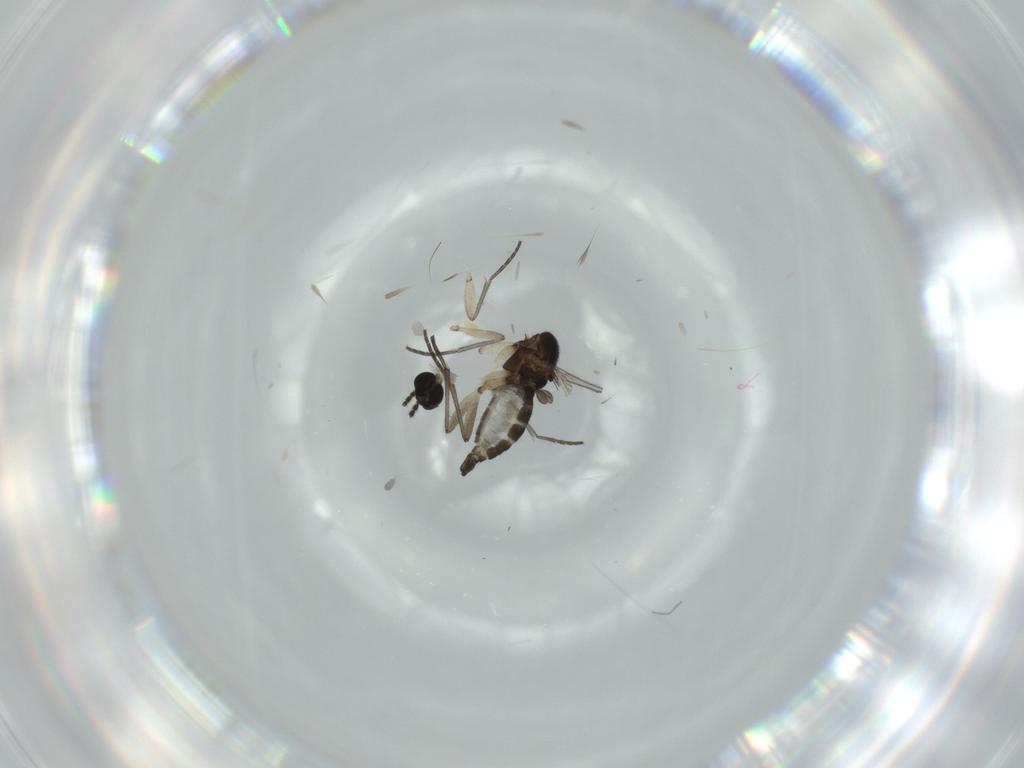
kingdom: Animalia
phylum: Arthropoda
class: Insecta
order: Diptera
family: Sciaridae
